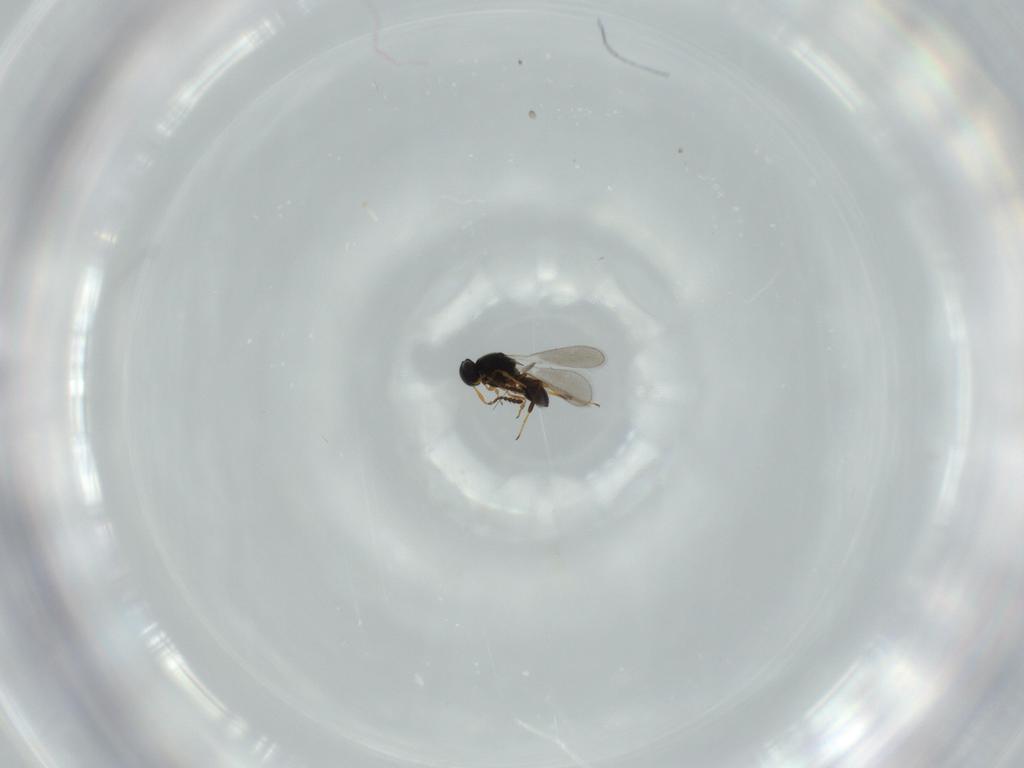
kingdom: Animalia
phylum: Arthropoda
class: Insecta
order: Hymenoptera
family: Platygastridae
